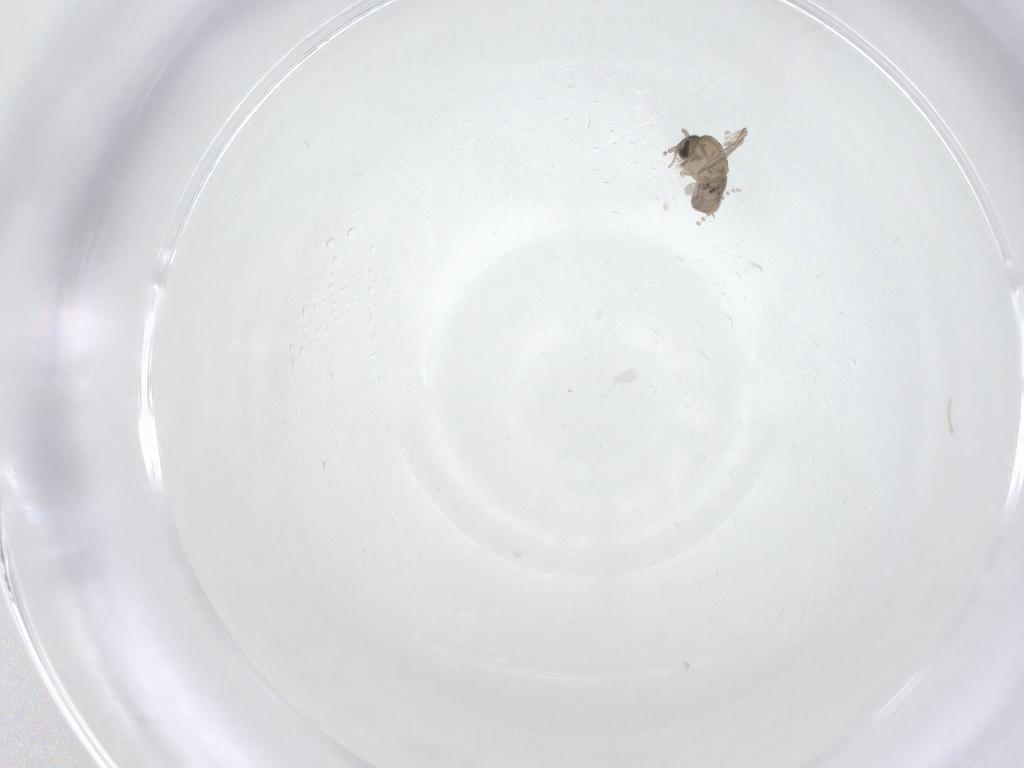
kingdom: Animalia
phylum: Arthropoda
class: Insecta
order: Diptera
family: Psychodidae
